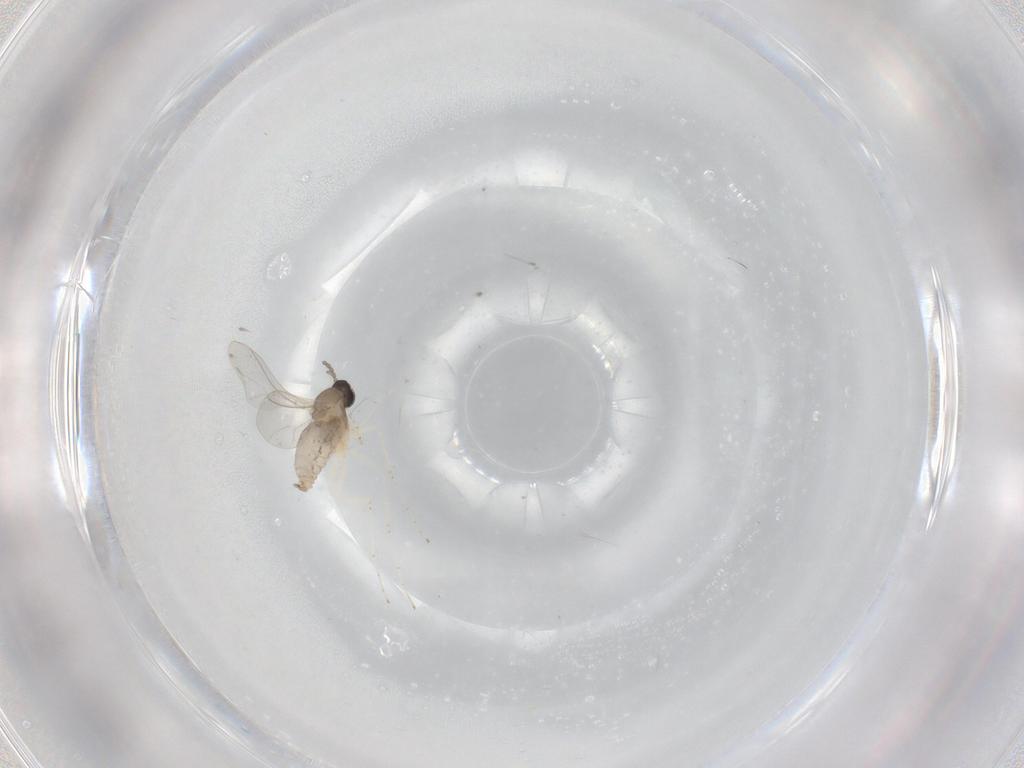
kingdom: Animalia
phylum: Arthropoda
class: Insecta
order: Diptera
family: Cecidomyiidae
